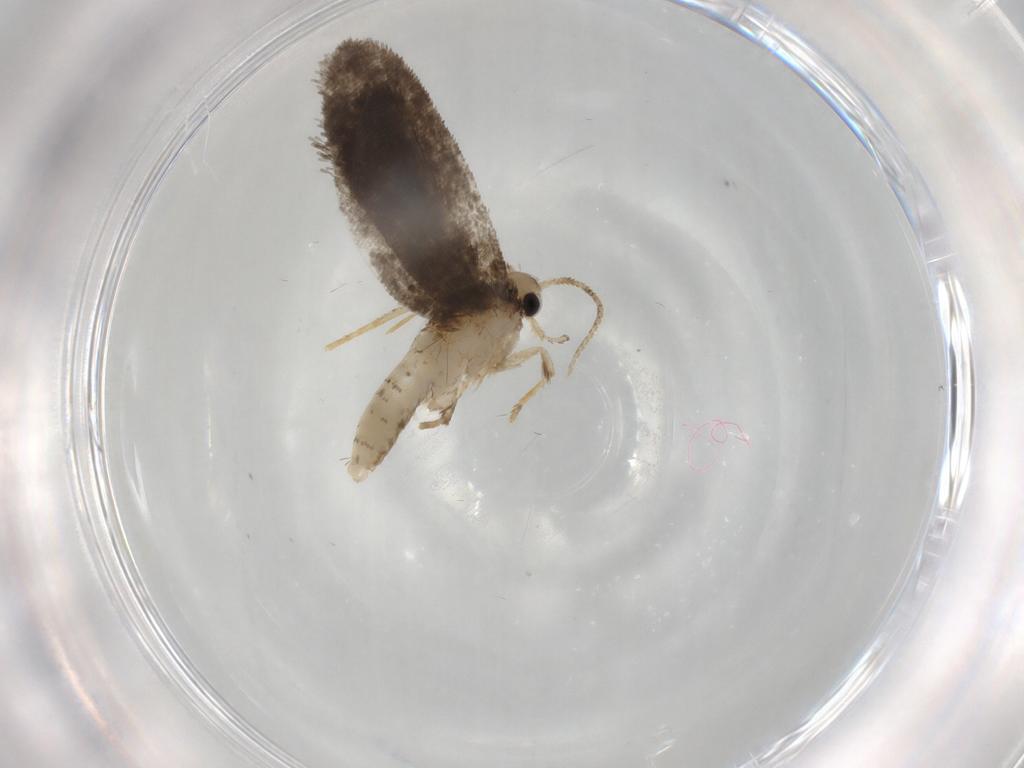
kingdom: Animalia
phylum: Arthropoda
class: Insecta
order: Lepidoptera
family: Psychidae
